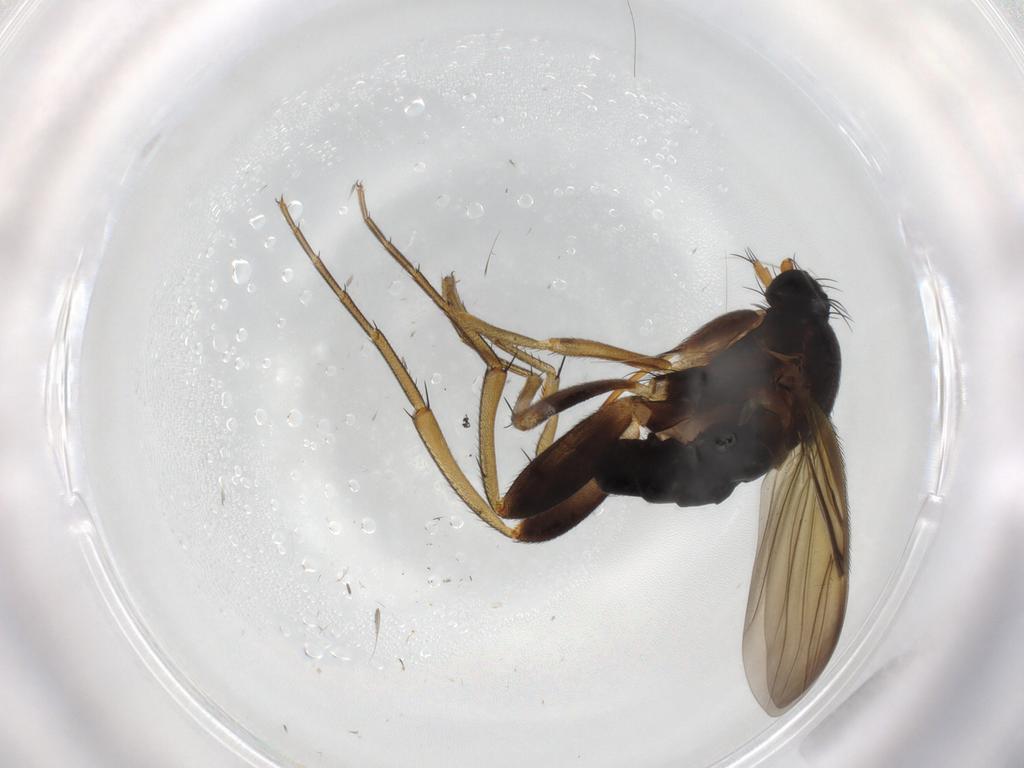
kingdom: Animalia
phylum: Arthropoda
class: Insecta
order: Diptera
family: Phoridae
